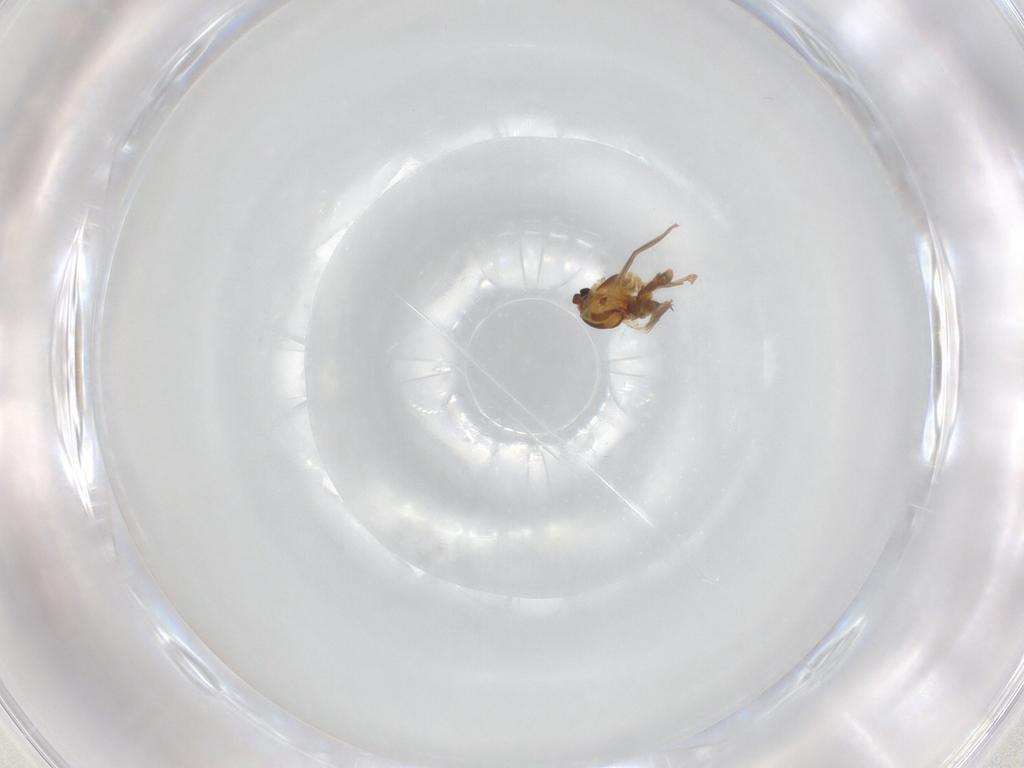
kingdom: Animalia
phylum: Arthropoda
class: Insecta
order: Diptera
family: Chironomidae
